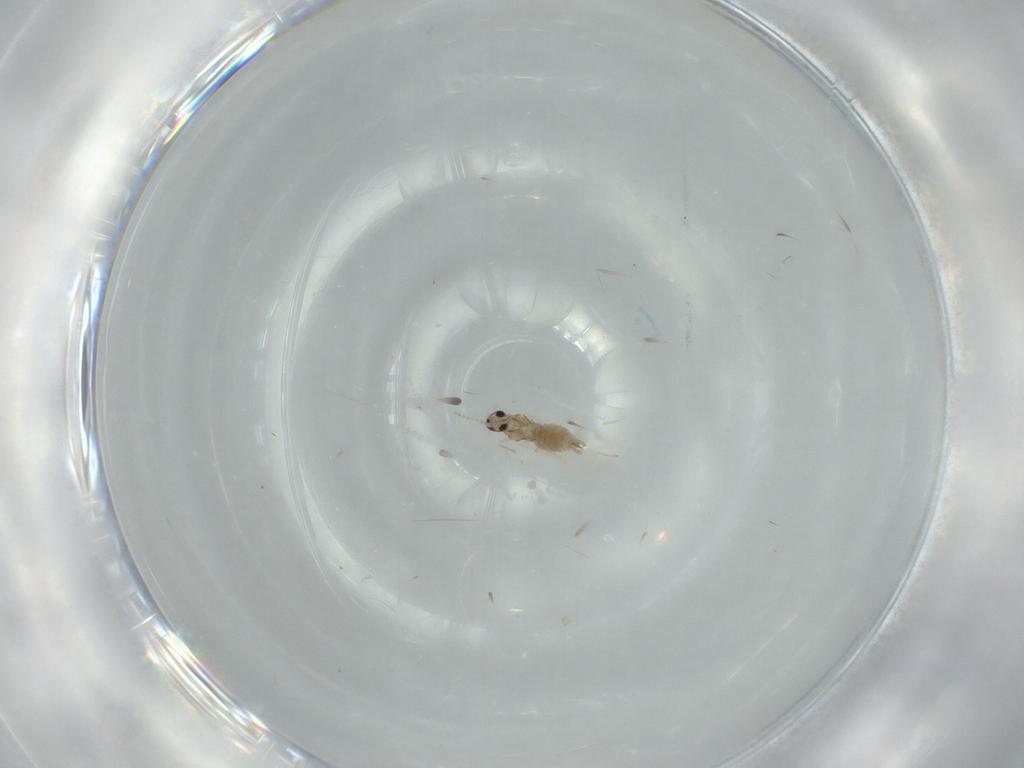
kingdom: Animalia
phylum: Arthropoda
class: Insecta
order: Diptera
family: Cecidomyiidae
